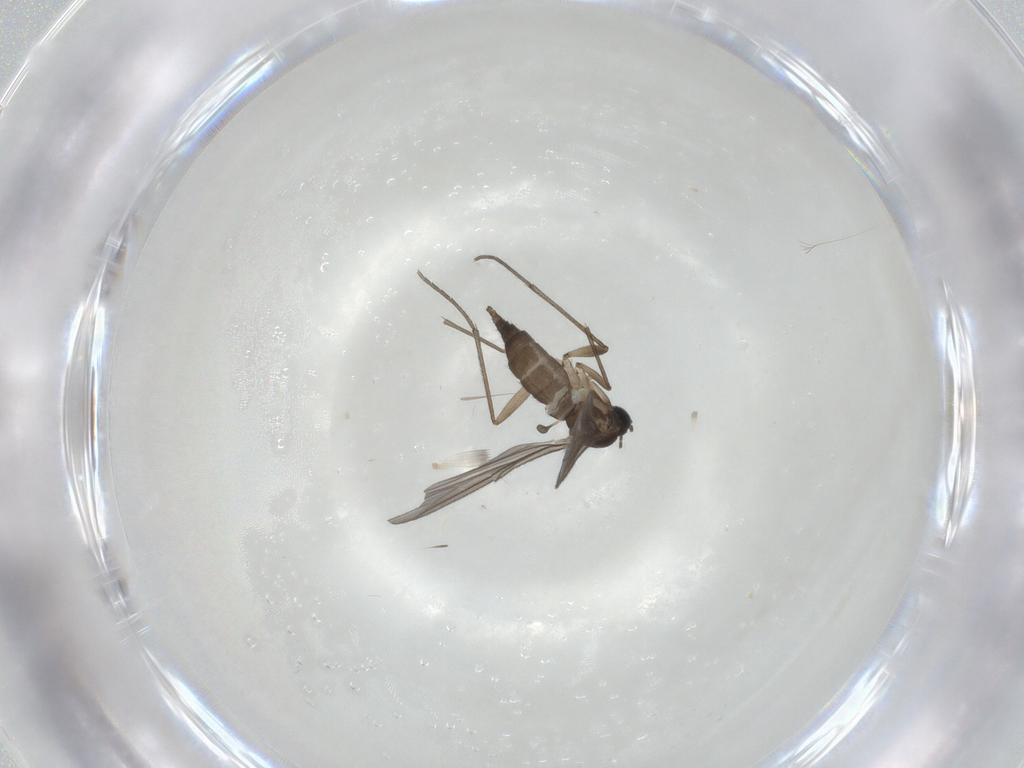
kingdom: Animalia
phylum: Arthropoda
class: Insecta
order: Diptera
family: Sciaridae
